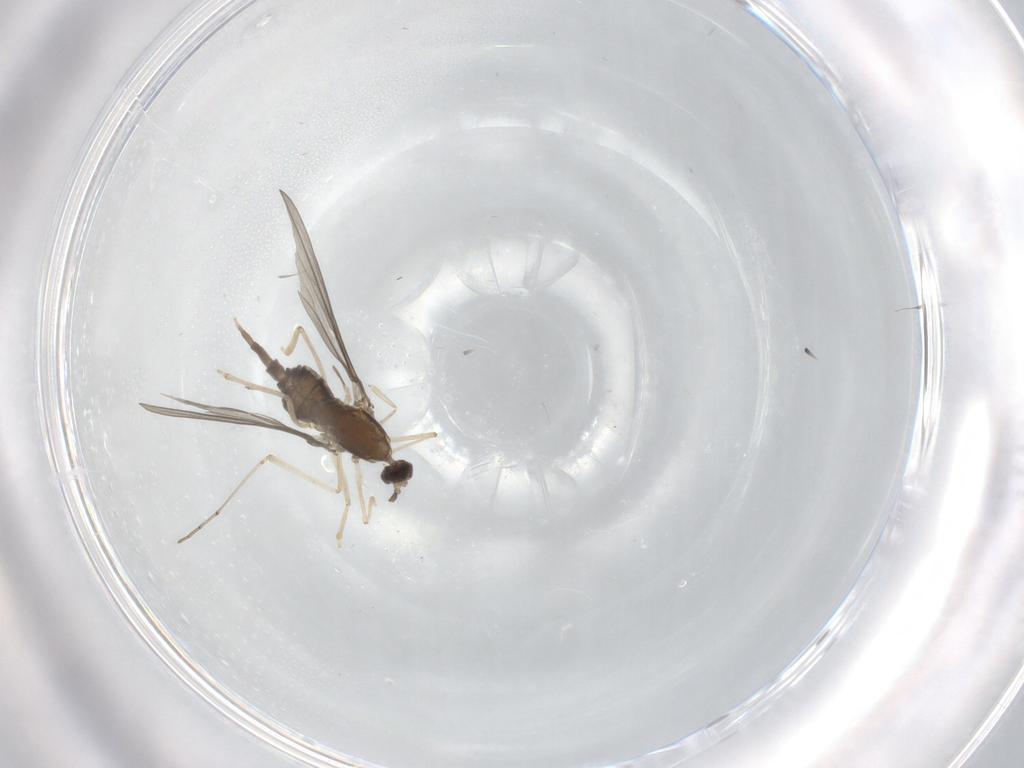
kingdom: Animalia
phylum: Arthropoda
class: Insecta
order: Diptera
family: Cecidomyiidae
